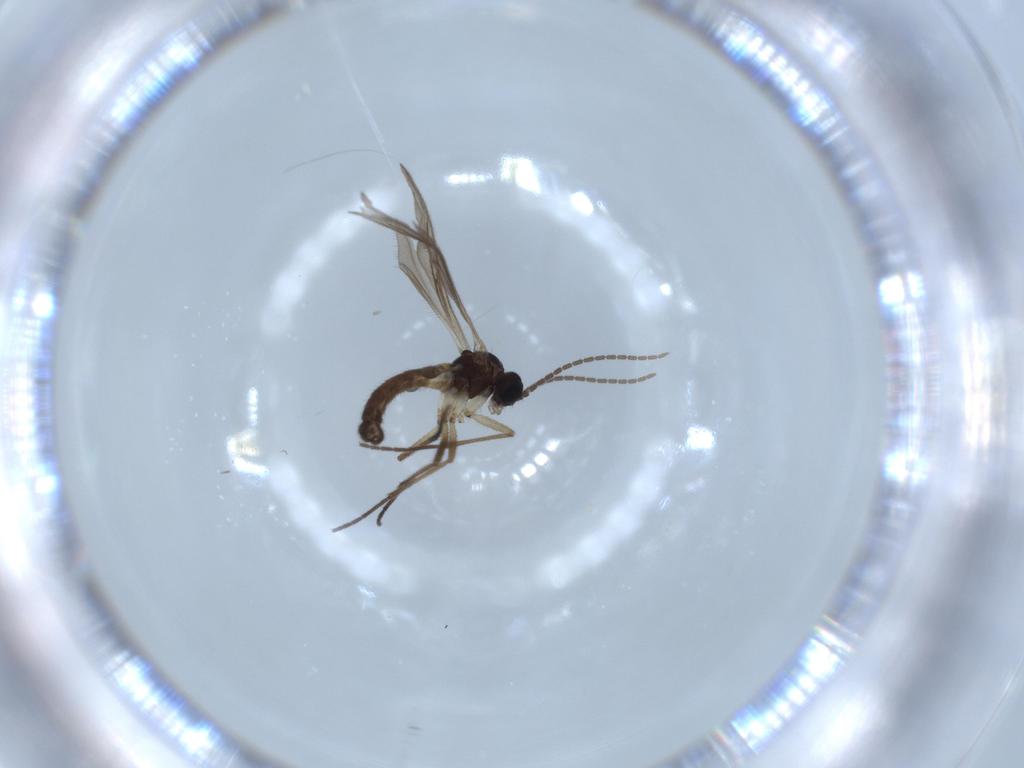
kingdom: Animalia
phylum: Arthropoda
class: Insecta
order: Diptera
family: Sciaridae
